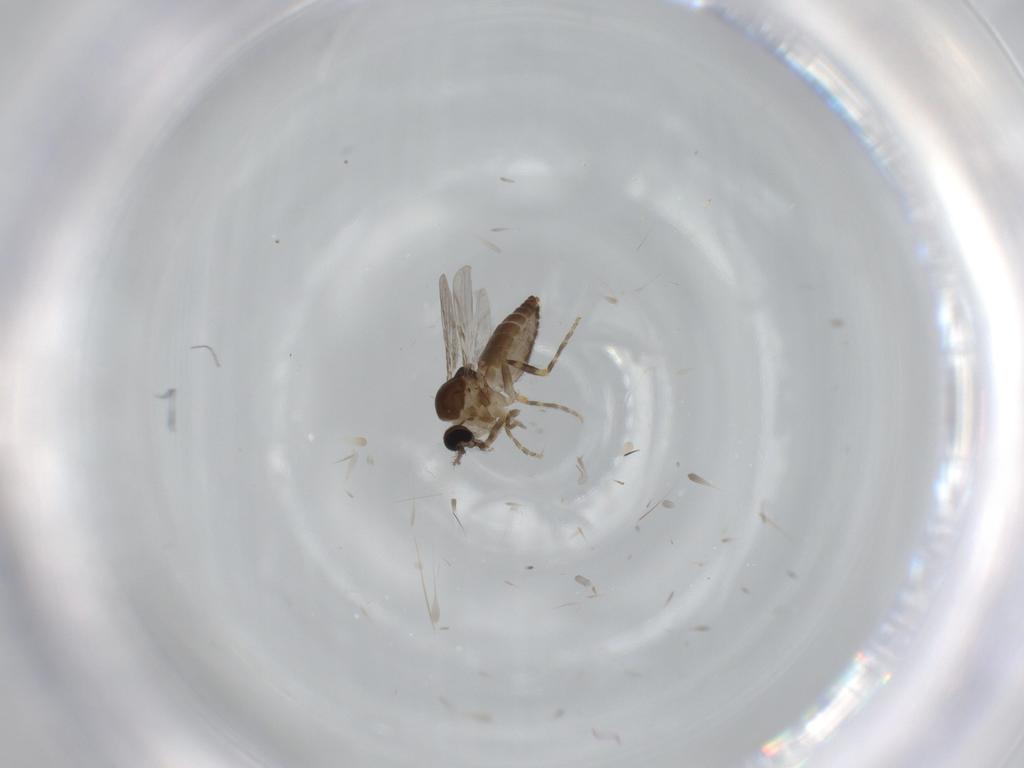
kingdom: Animalia
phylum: Arthropoda
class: Insecta
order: Diptera
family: Ceratopogonidae
